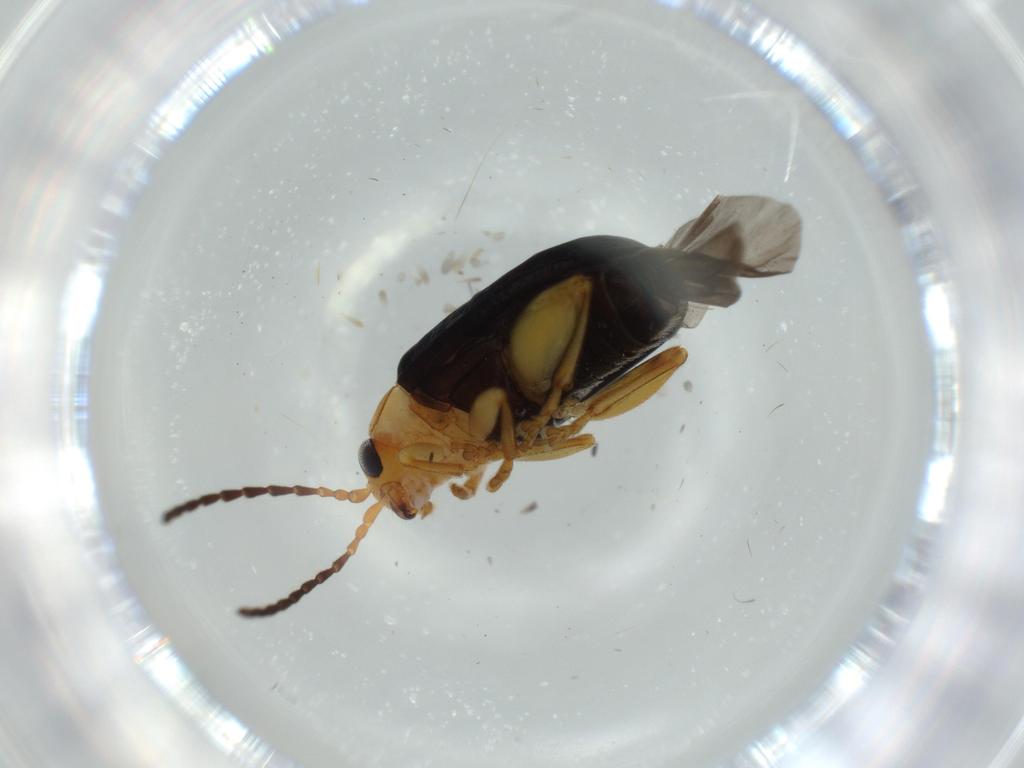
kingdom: Animalia
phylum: Arthropoda
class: Insecta
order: Coleoptera
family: Chrysomelidae
